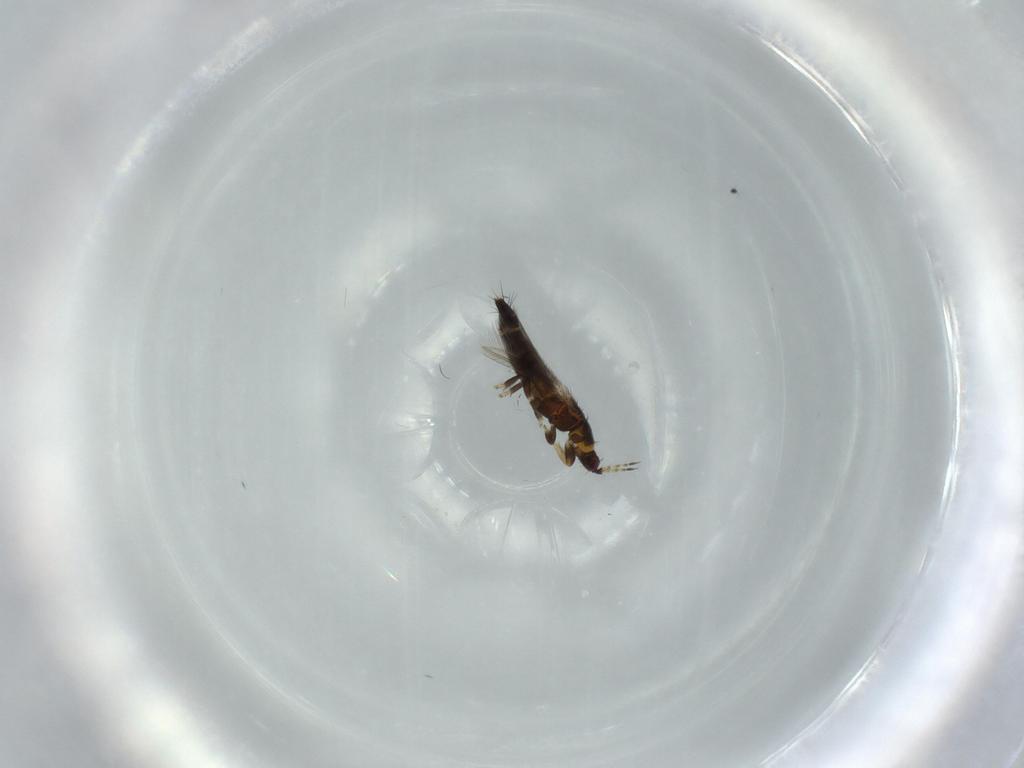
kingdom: Animalia
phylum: Arthropoda
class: Insecta
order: Thysanoptera
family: Thripidae
